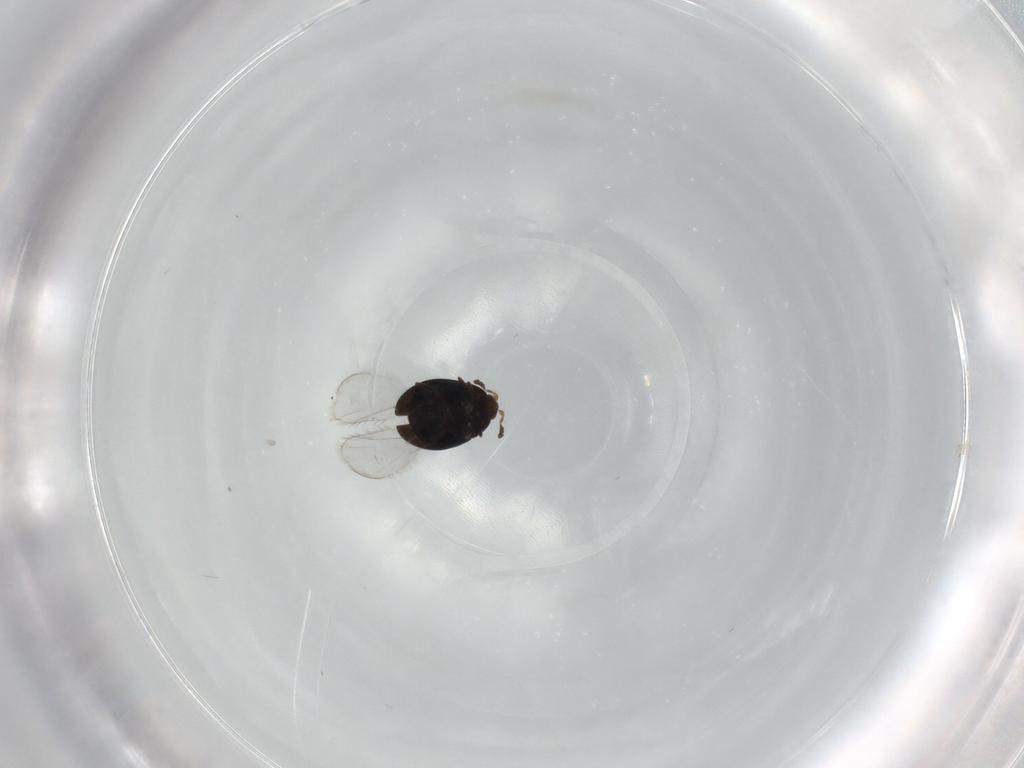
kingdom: Animalia
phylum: Arthropoda
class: Insecta
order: Coleoptera
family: Corylophidae
